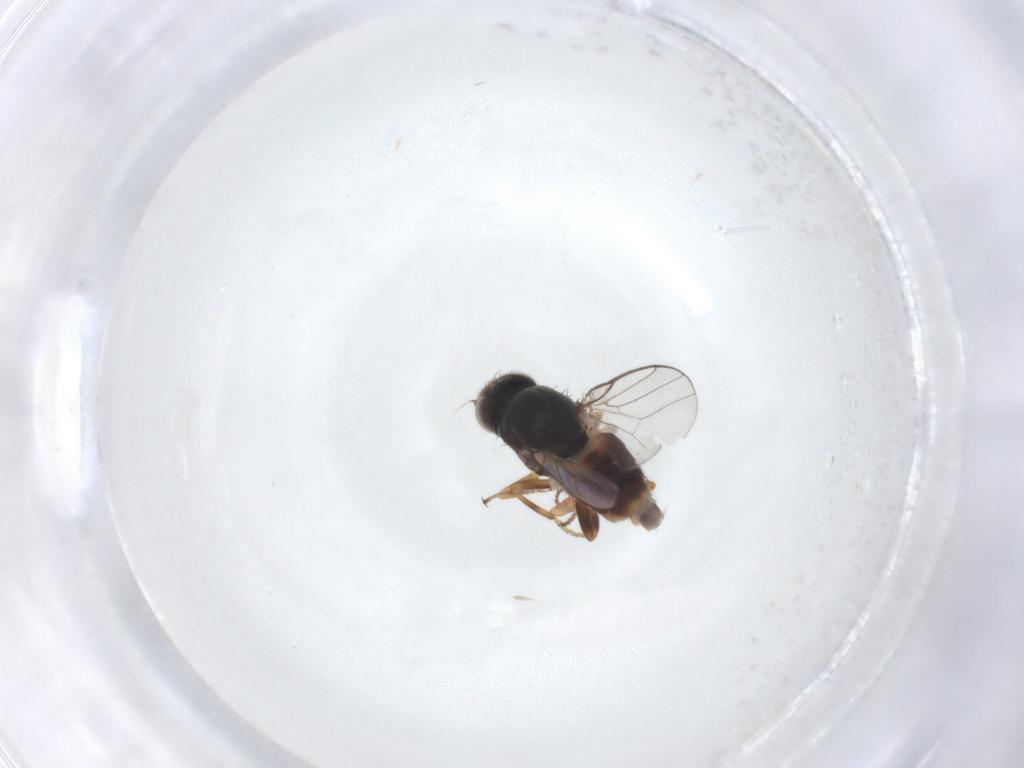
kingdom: Animalia
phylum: Arthropoda
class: Insecta
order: Diptera
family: Chloropidae
